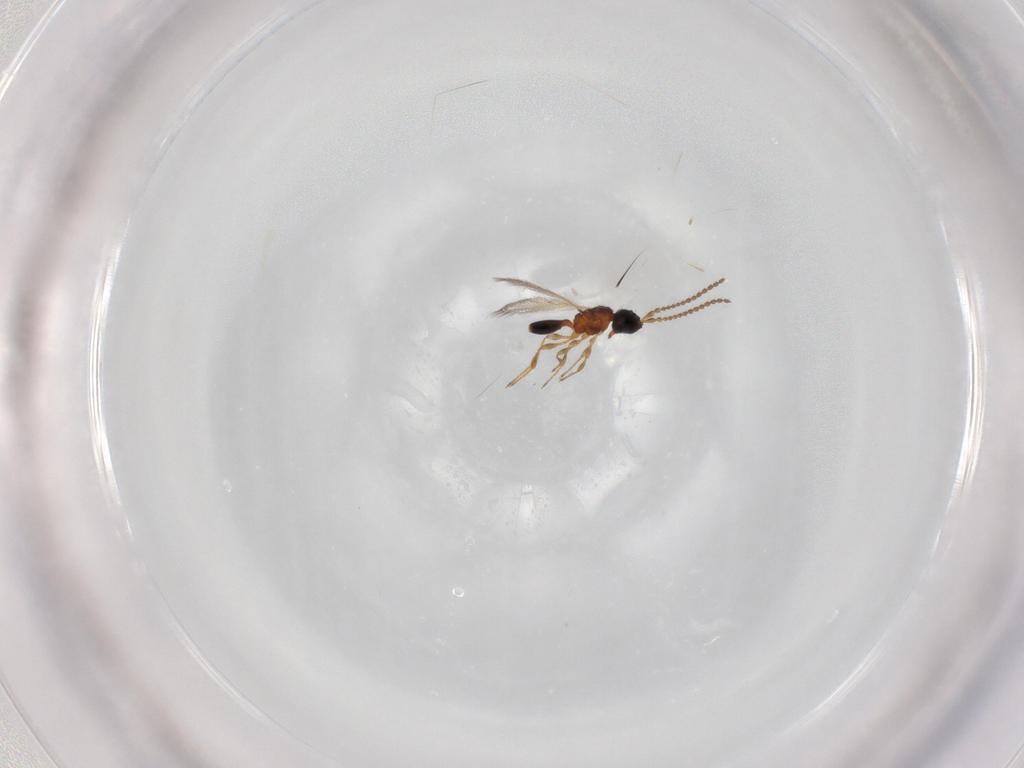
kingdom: Animalia
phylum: Arthropoda
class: Insecta
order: Hymenoptera
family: Diapriidae
